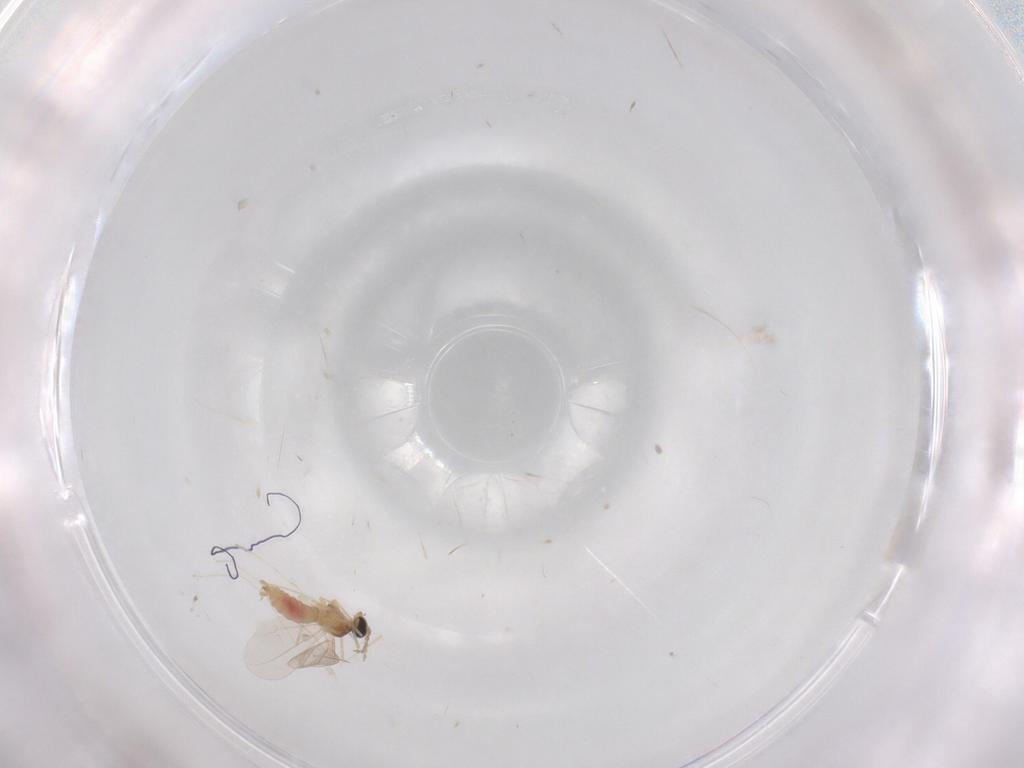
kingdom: Animalia
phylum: Arthropoda
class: Insecta
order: Diptera
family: Cecidomyiidae
